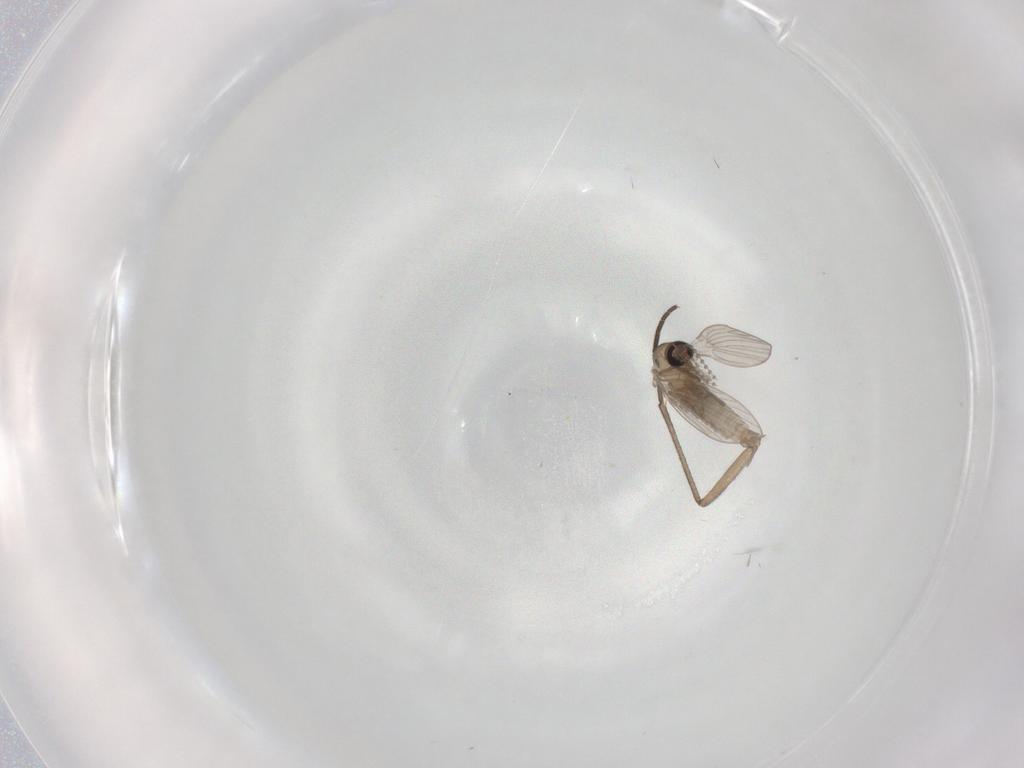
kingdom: Animalia
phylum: Arthropoda
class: Insecta
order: Diptera
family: Psychodidae
